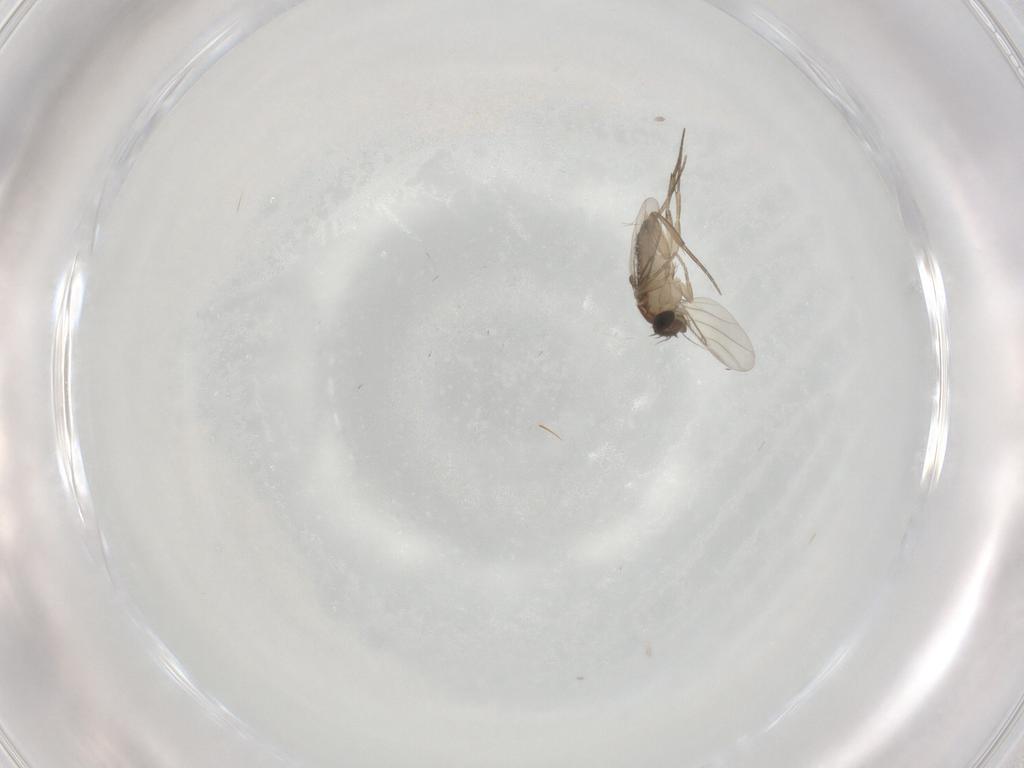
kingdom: Animalia
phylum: Arthropoda
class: Insecta
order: Diptera
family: Phoridae
